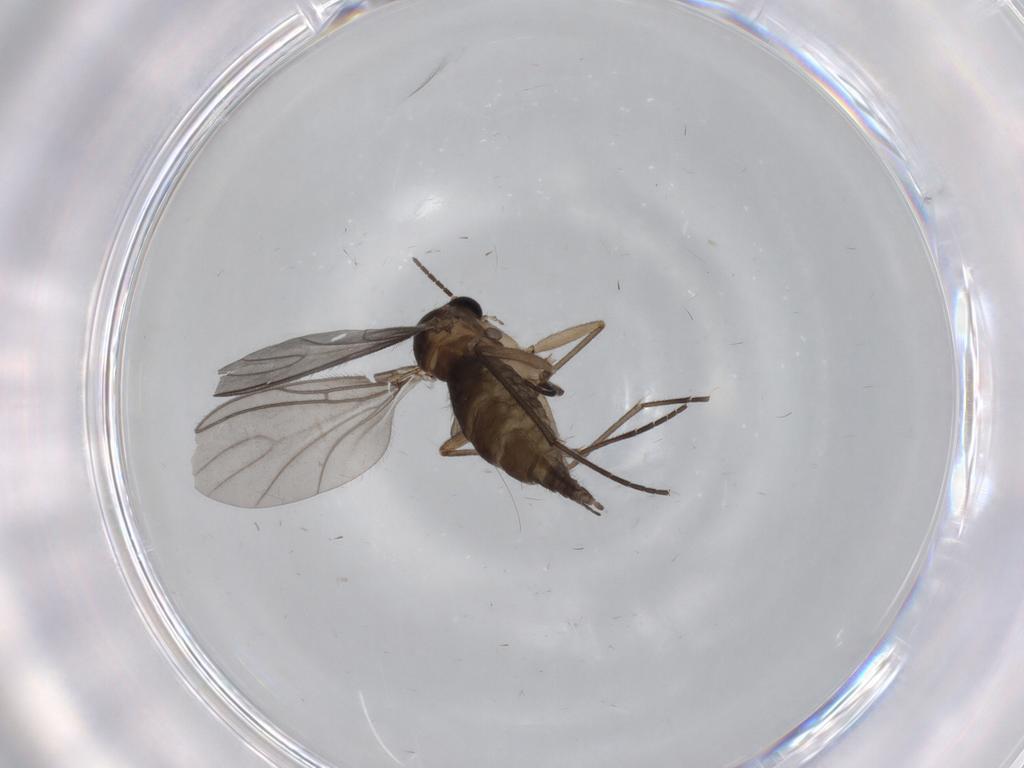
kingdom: Animalia
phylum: Arthropoda
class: Insecta
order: Diptera
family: Cecidomyiidae
